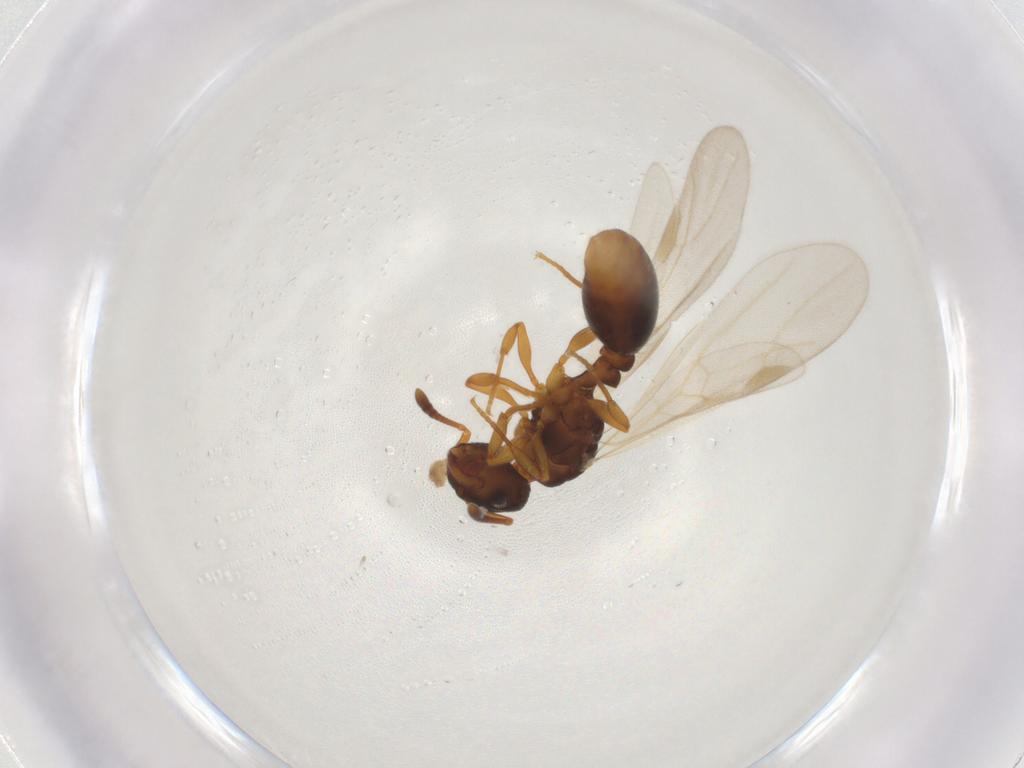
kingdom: Animalia
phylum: Arthropoda
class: Insecta
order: Hymenoptera
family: Formicidae
